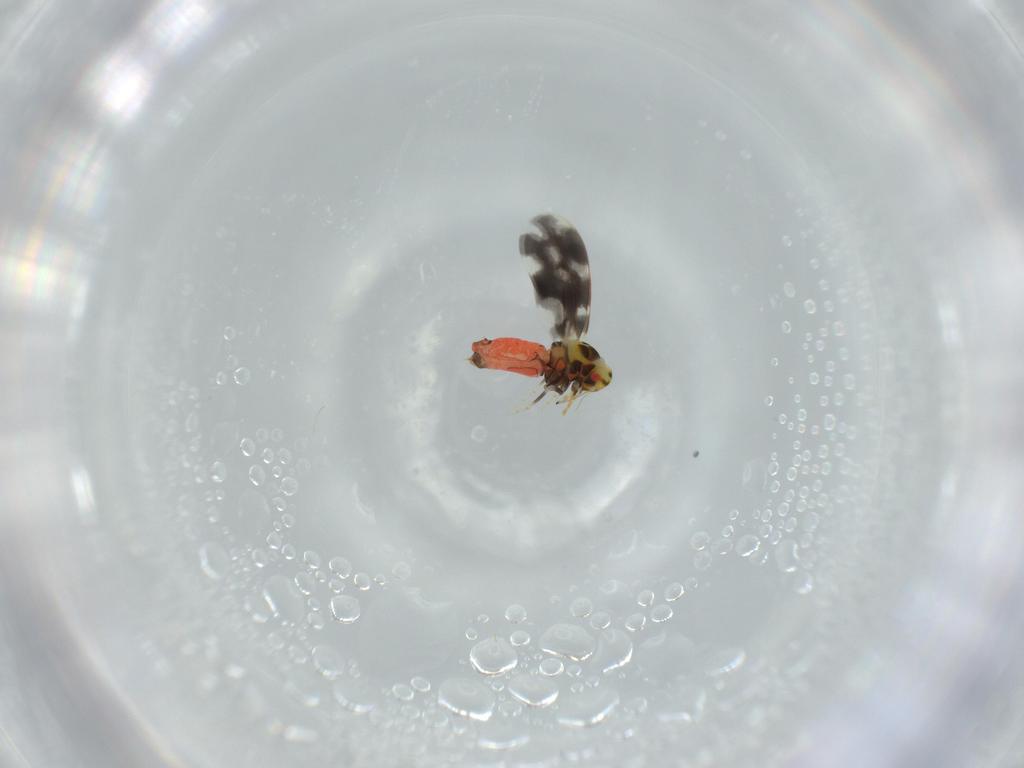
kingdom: Animalia
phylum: Arthropoda
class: Insecta
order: Hemiptera
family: Aleyrodidae
